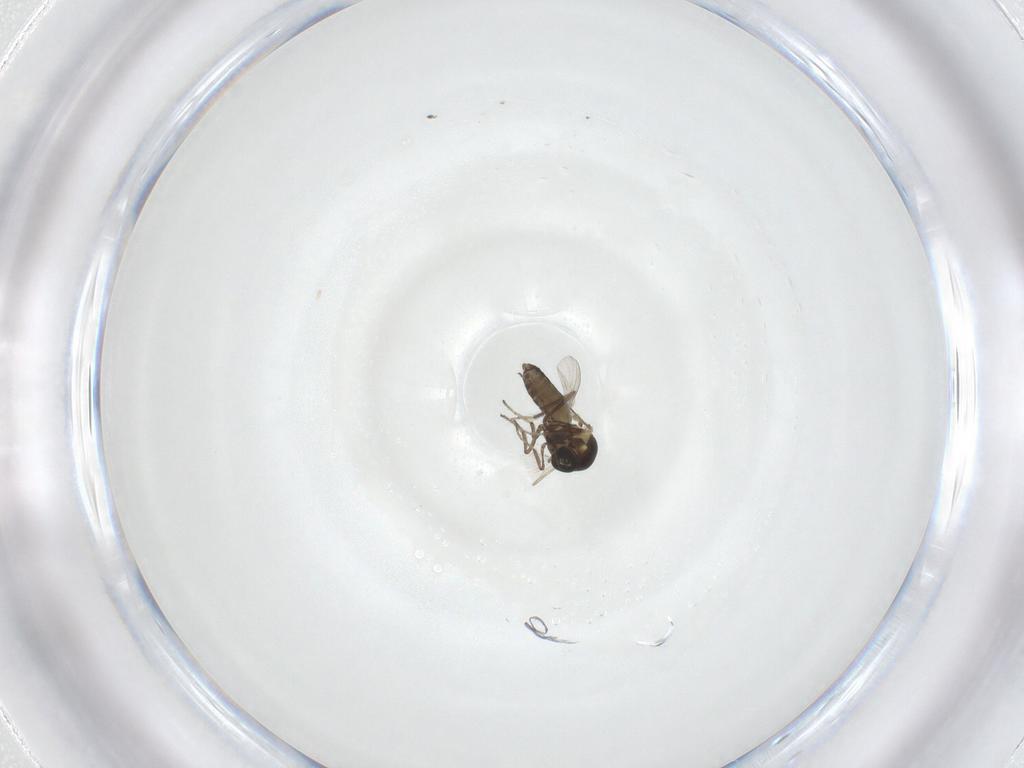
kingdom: Animalia
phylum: Arthropoda
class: Insecta
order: Diptera
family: Ceratopogonidae
